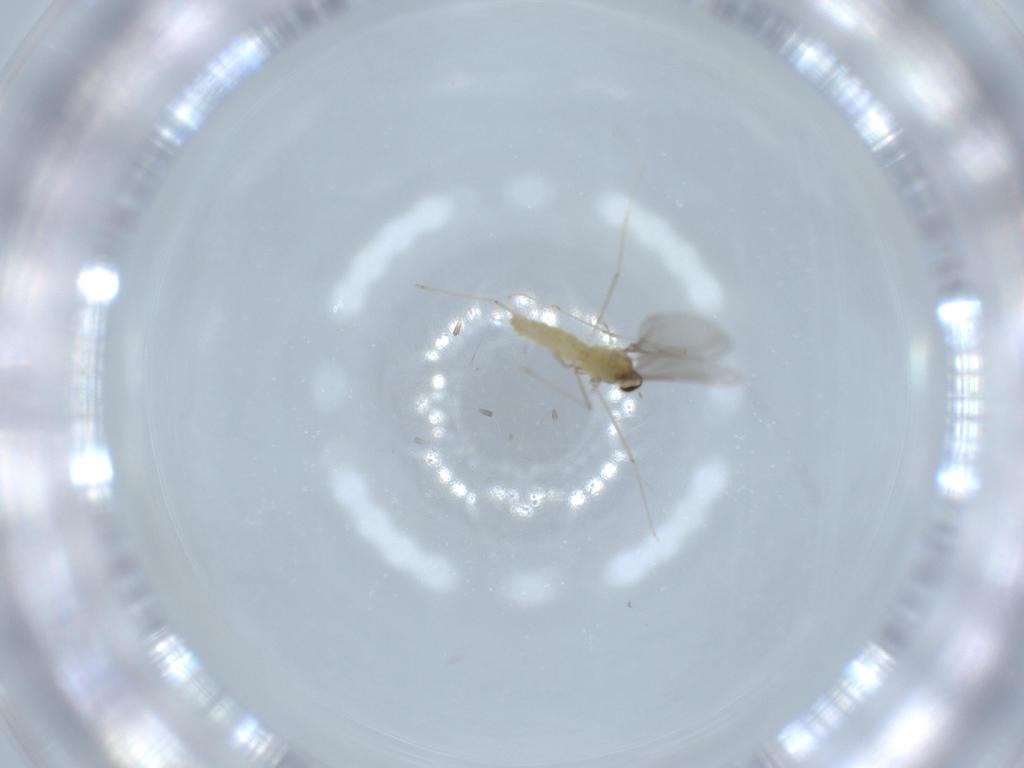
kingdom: Animalia
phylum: Arthropoda
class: Insecta
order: Diptera
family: Cecidomyiidae
